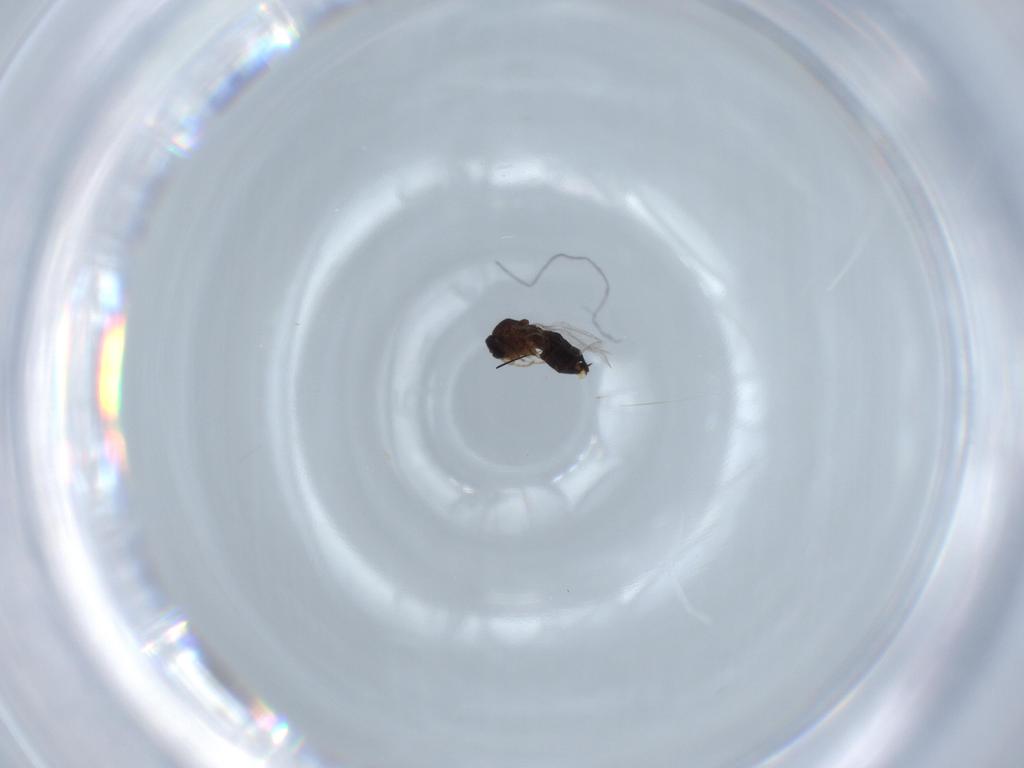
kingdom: Animalia
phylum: Arthropoda
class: Insecta
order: Diptera
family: Scatopsidae
